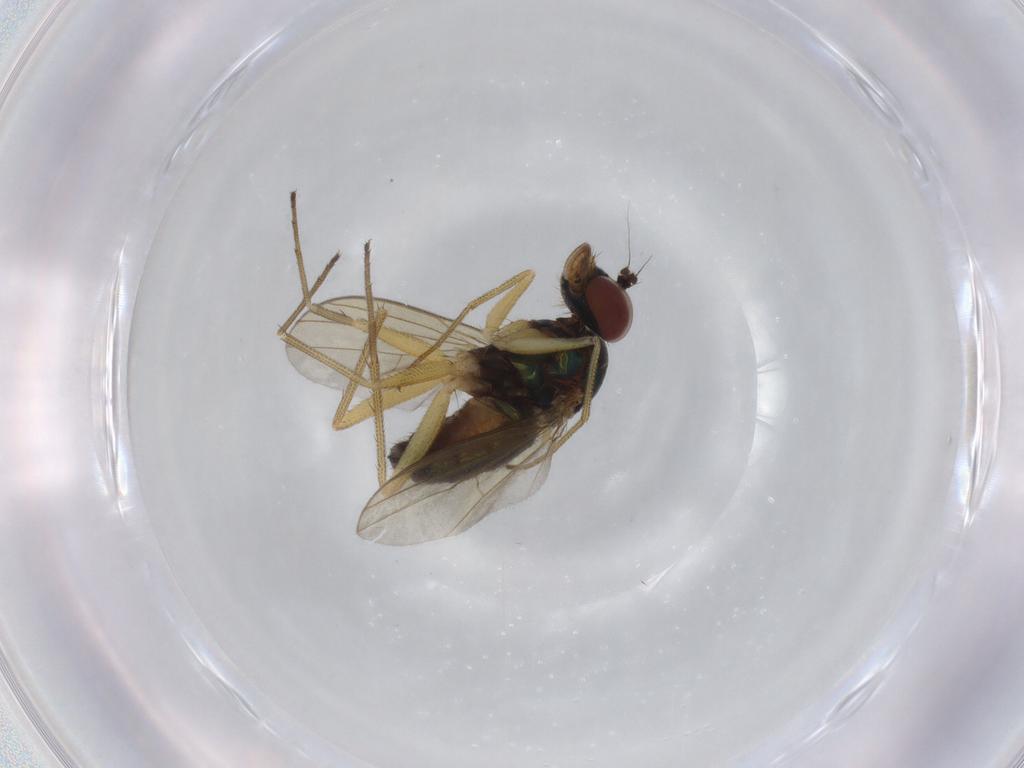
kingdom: Animalia
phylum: Arthropoda
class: Insecta
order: Diptera
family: Dolichopodidae
